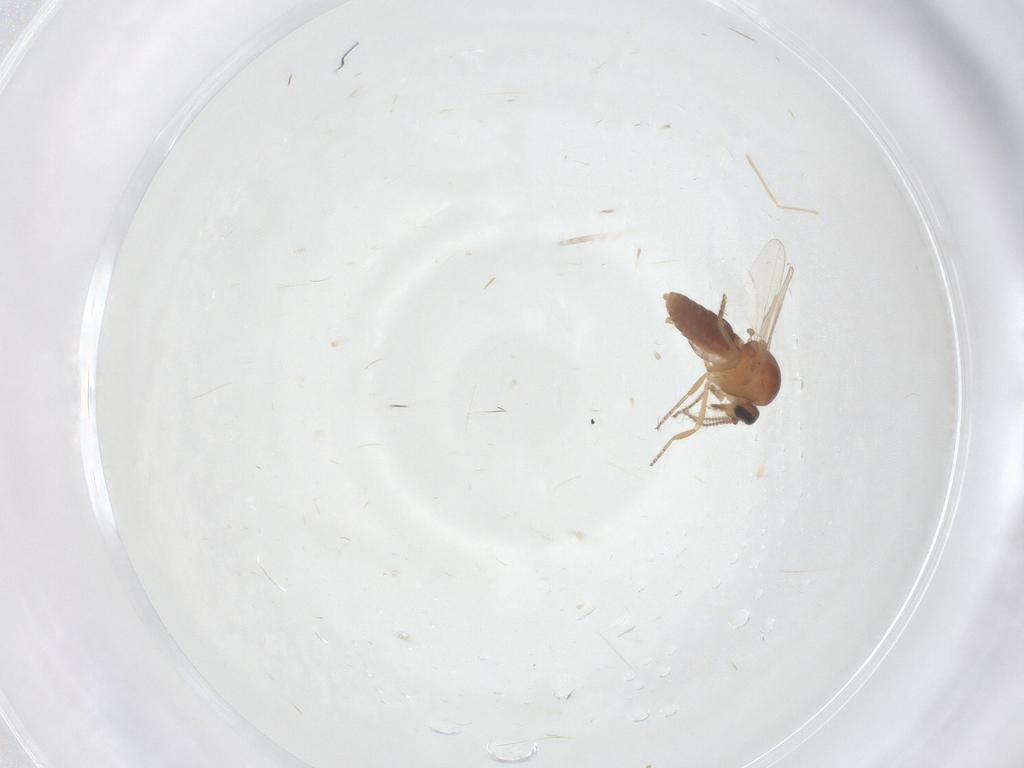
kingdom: Animalia
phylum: Arthropoda
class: Insecta
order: Diptera
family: Ceratopogonidae
